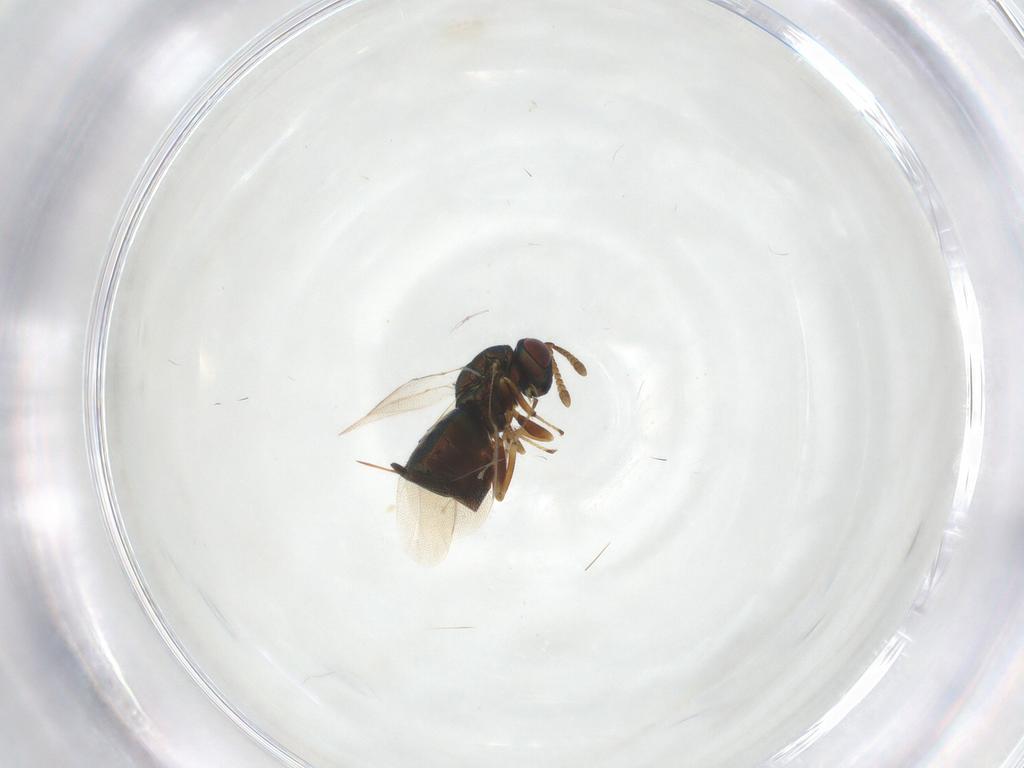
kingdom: Animalia
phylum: Arthropoda
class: Insecta
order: Hymenoptera
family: Pteromalidae
